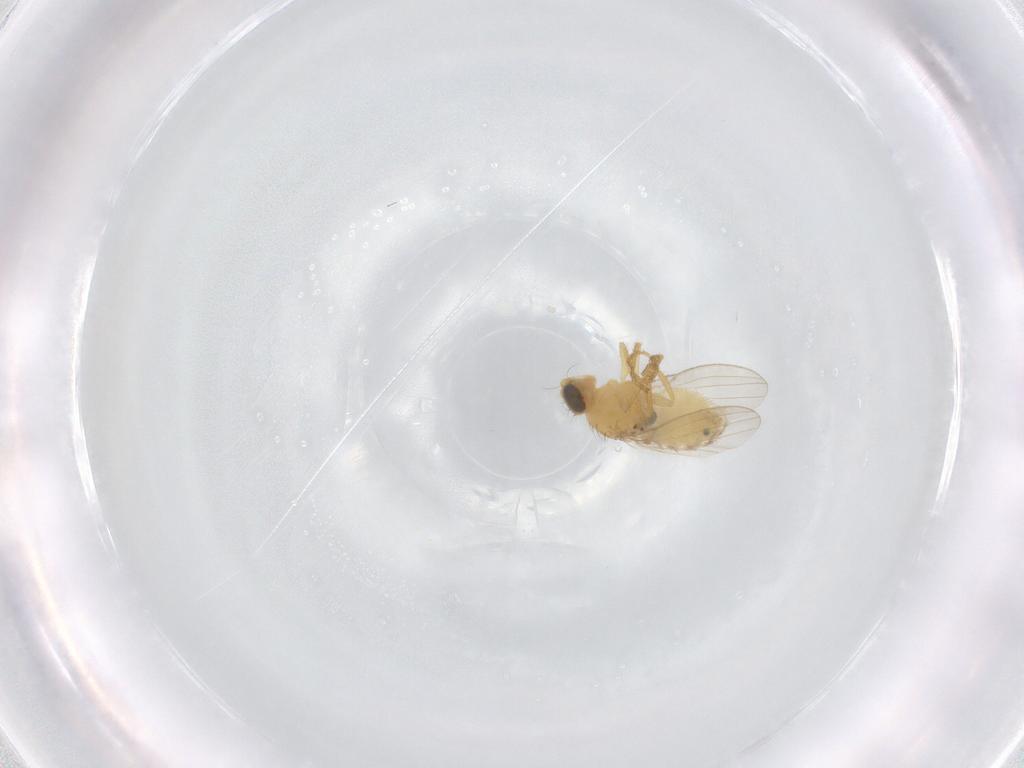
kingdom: Animalia
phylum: Arthropoda
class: Insecta
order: Diptera
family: Chyromyidae
